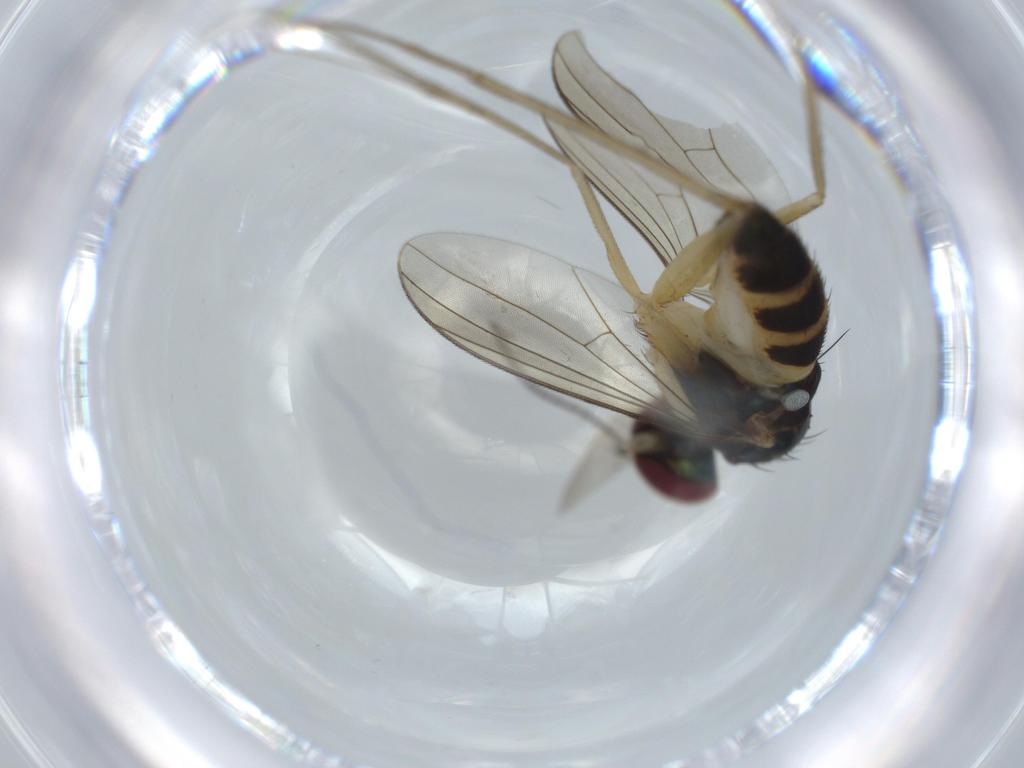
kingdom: Animalia
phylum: Arthropoda
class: Insecta
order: Diptera
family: Dolichopodidae
